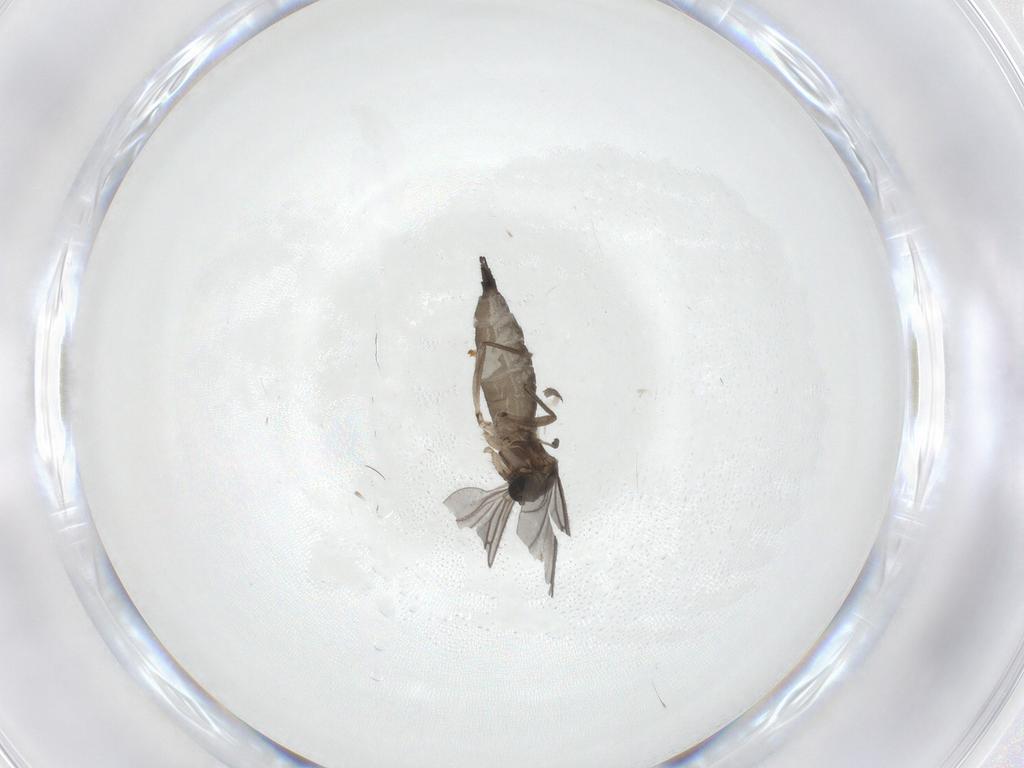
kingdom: Animalia
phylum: Arthropoda
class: Insecta
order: Diptera
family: Sciaridae
